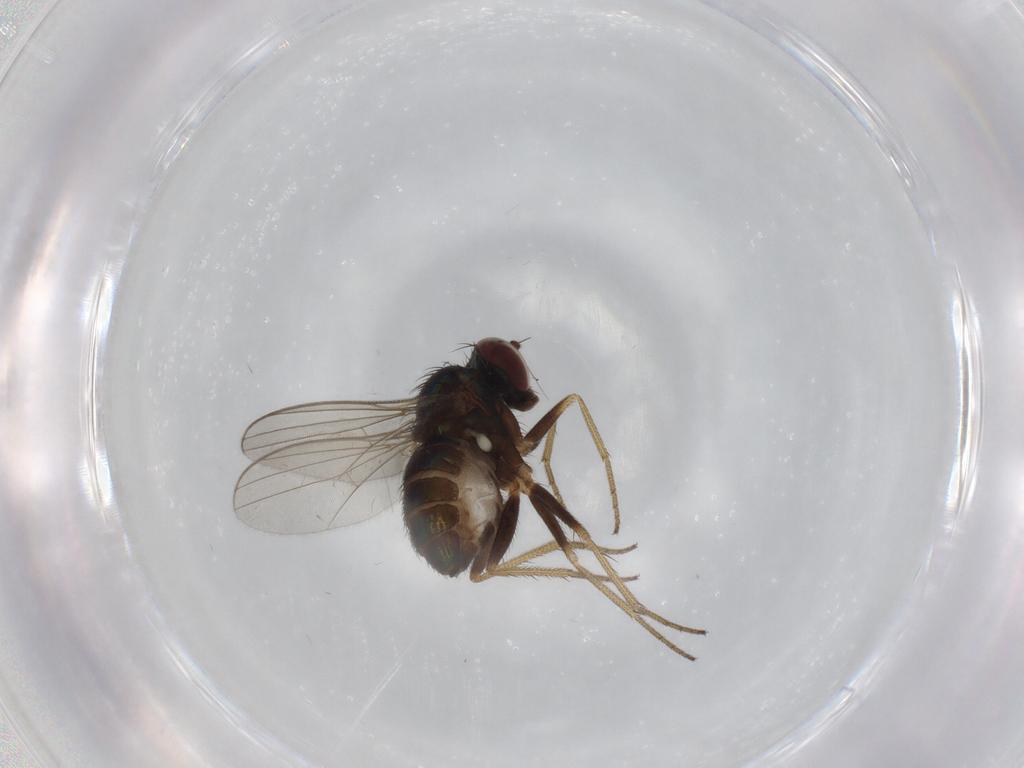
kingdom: Animalia
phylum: Arthropoda
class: Insecta
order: Diptera
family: Dolichopodidae
